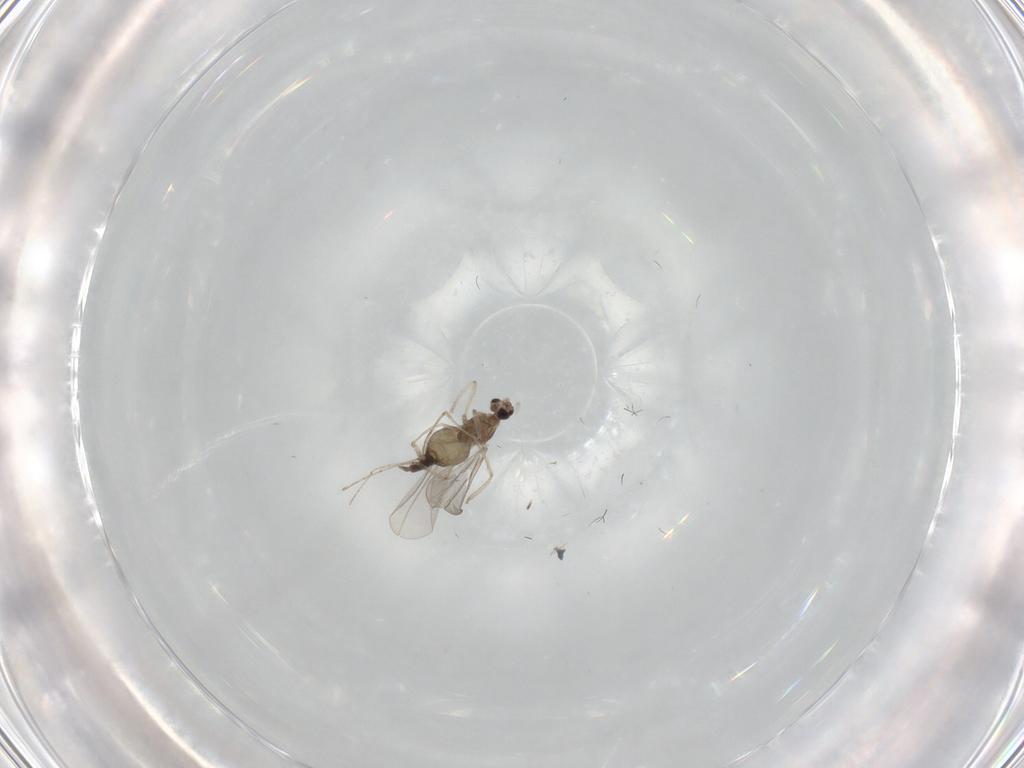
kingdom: Animalia
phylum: Arthropoda
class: Insecta
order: Diptera
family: Cecidomyiidae
